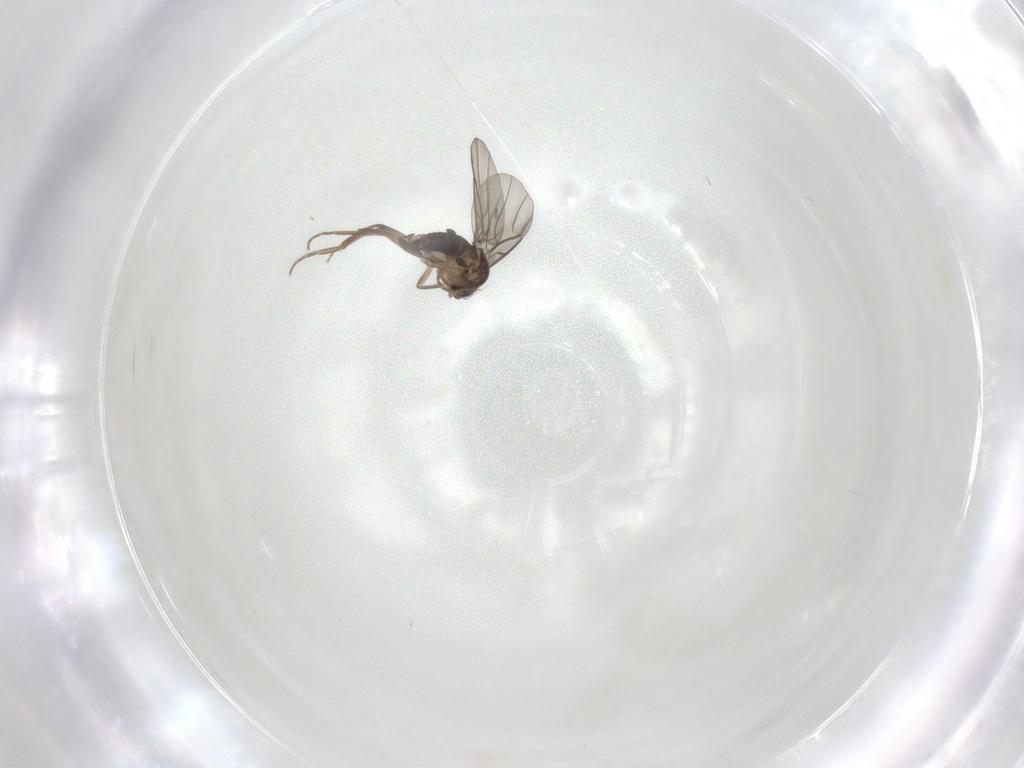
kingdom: Animalia
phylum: Arthropoda
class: Insecta
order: Diptera
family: Phoridae
